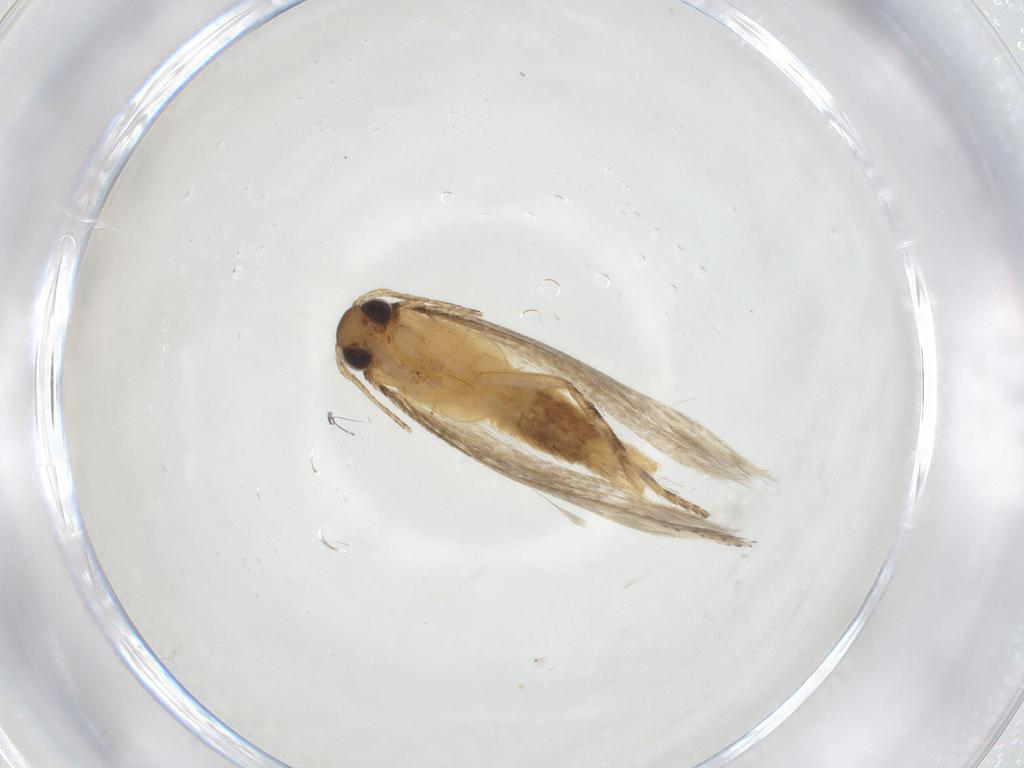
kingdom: Animalia
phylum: Arthropoda
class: Insecta
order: Lepidoptera
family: Gelechiidae
